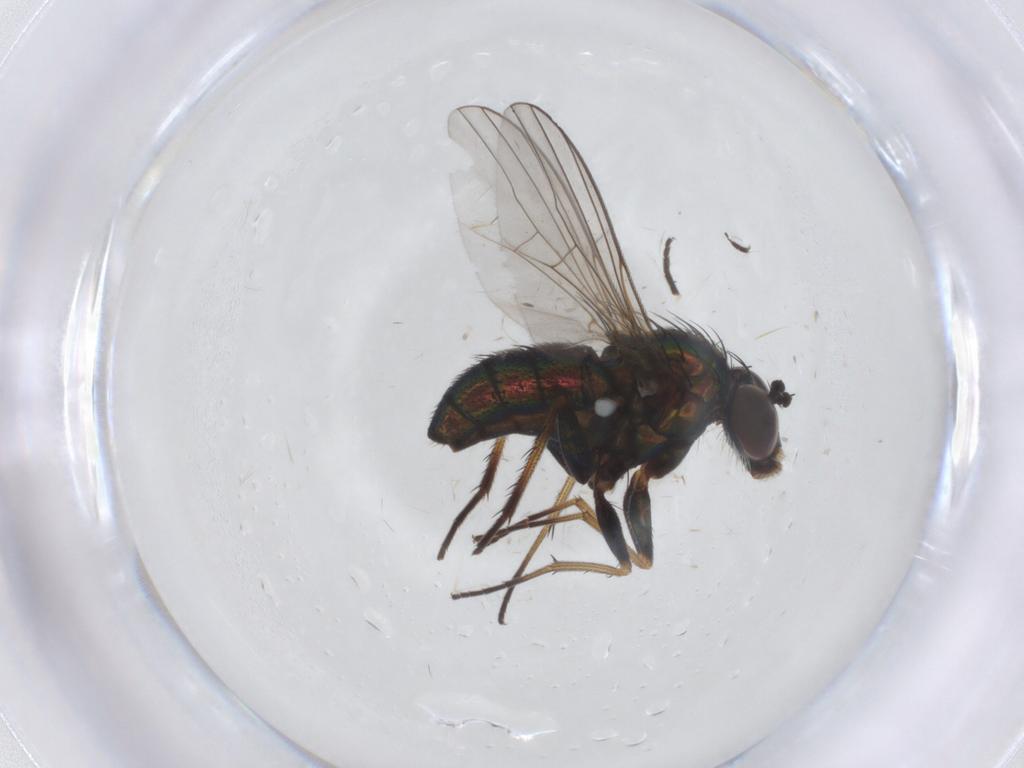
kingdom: Animalia
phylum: Arthropoda
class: Insecta
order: Diptera
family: Dolichopodidae
